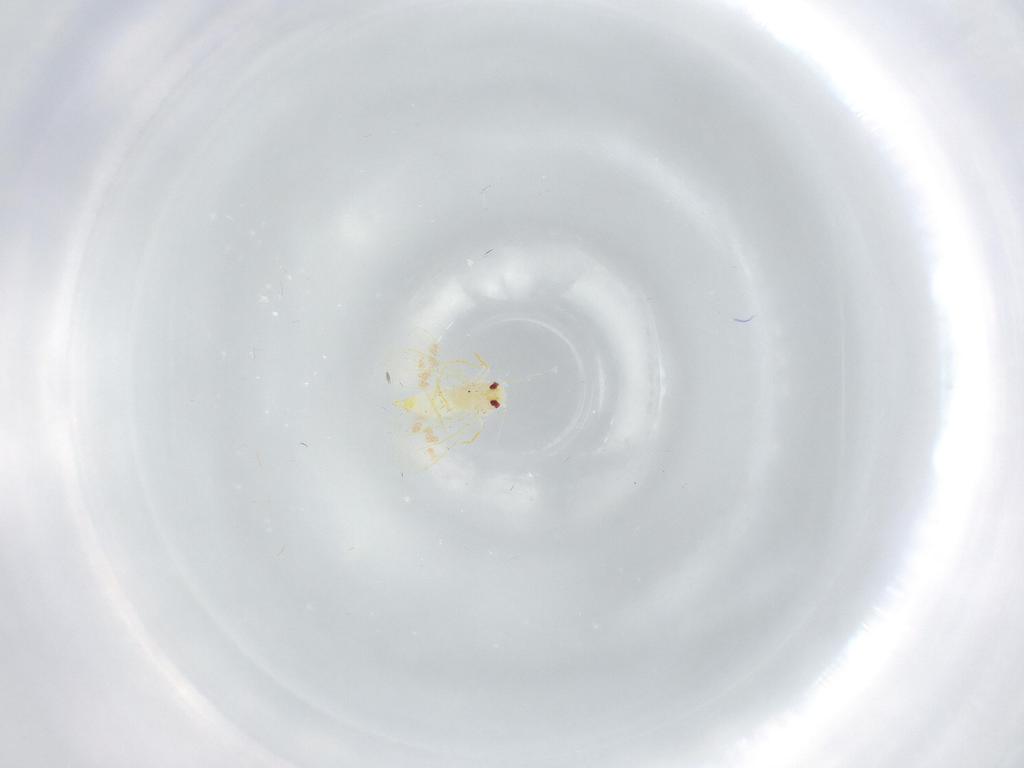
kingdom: Animalia
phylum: Arthropoda
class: Insecta
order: Hemiptera
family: Aleyrodidae
